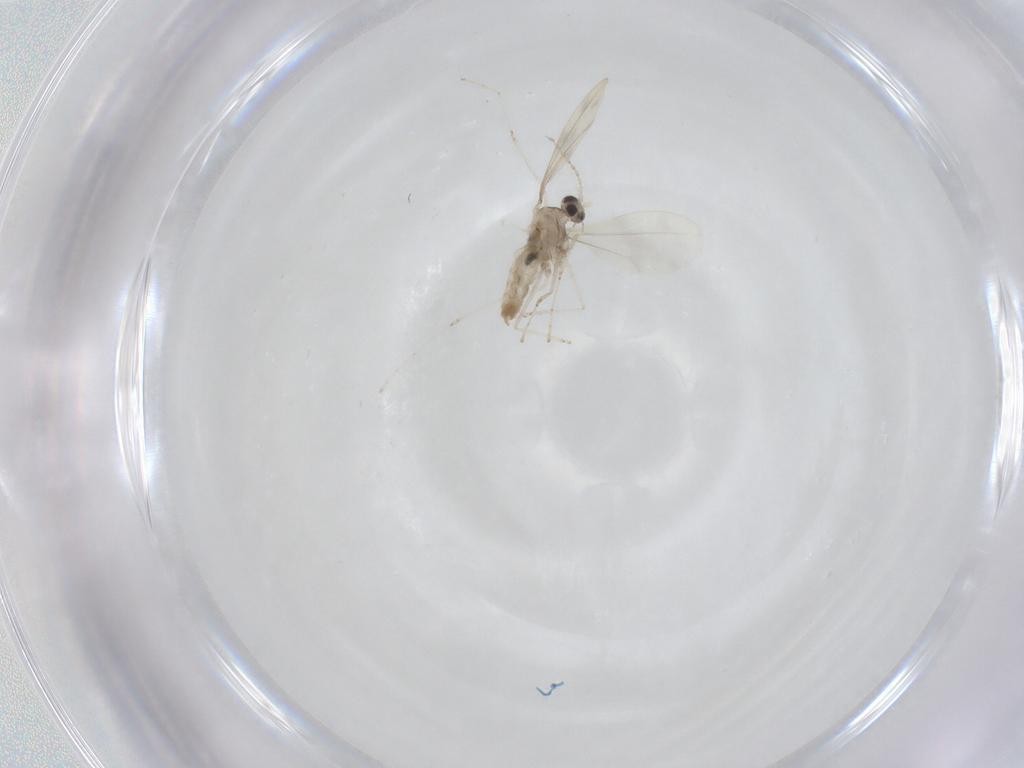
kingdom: Animalia
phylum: Arthropoda
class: Insecta
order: Diptera
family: Cecidomyiidae
